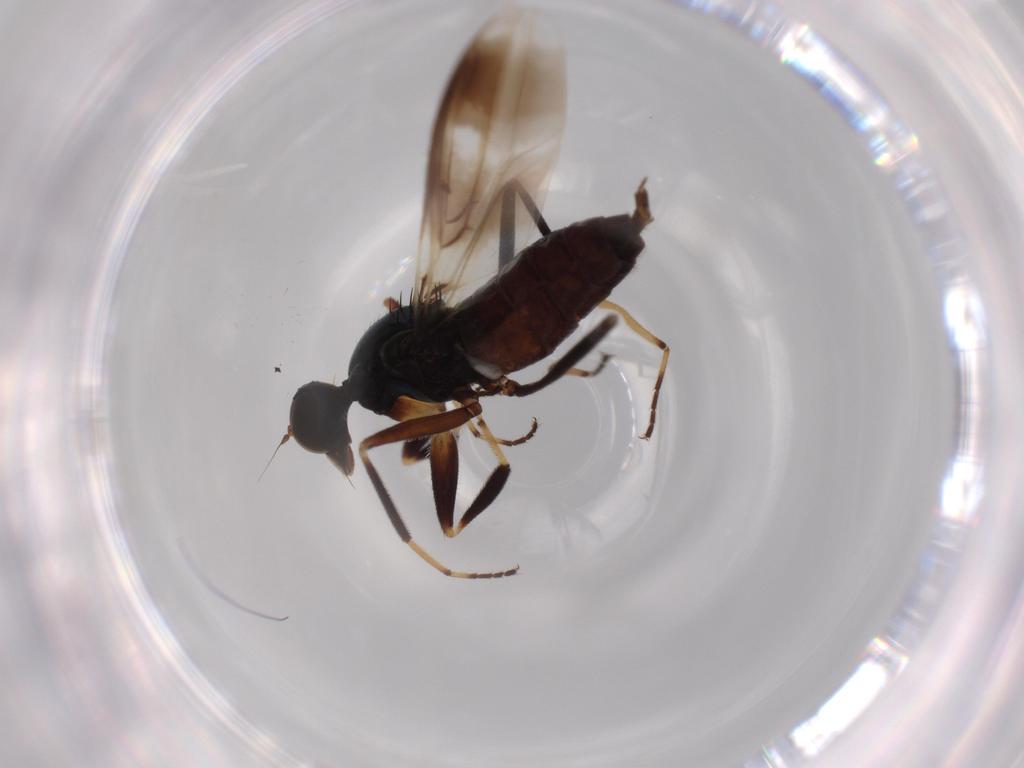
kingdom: Animalia
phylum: Arthropoda
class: Insecta
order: Diptera
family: Hybotidae
